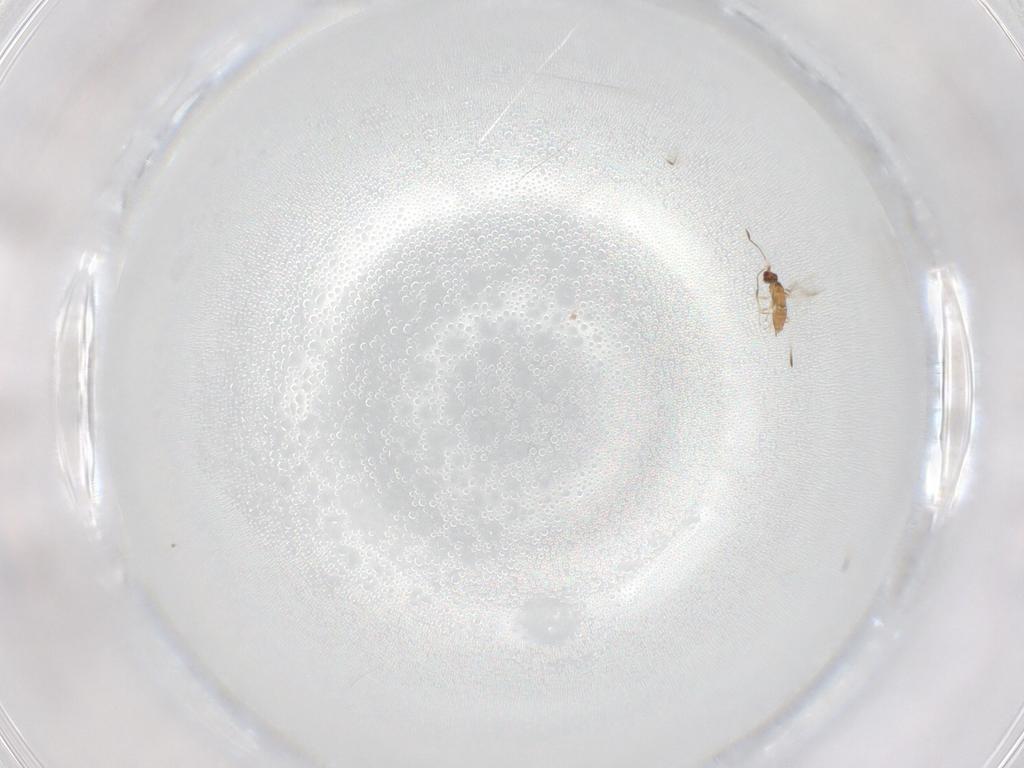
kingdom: Animalia
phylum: Arthropoda
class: Insecta
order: Hymenoptera
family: Mymaridae
